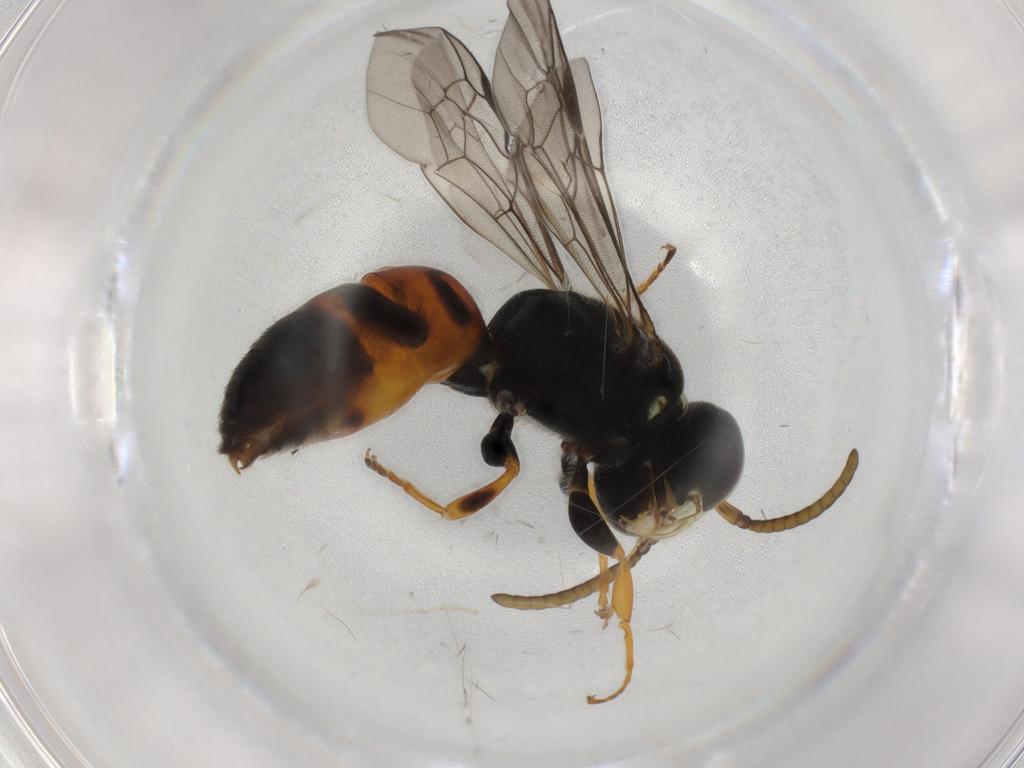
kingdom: Animalia
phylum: Arthropoda
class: Insecta
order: Hymenoptera
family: Colletidae
